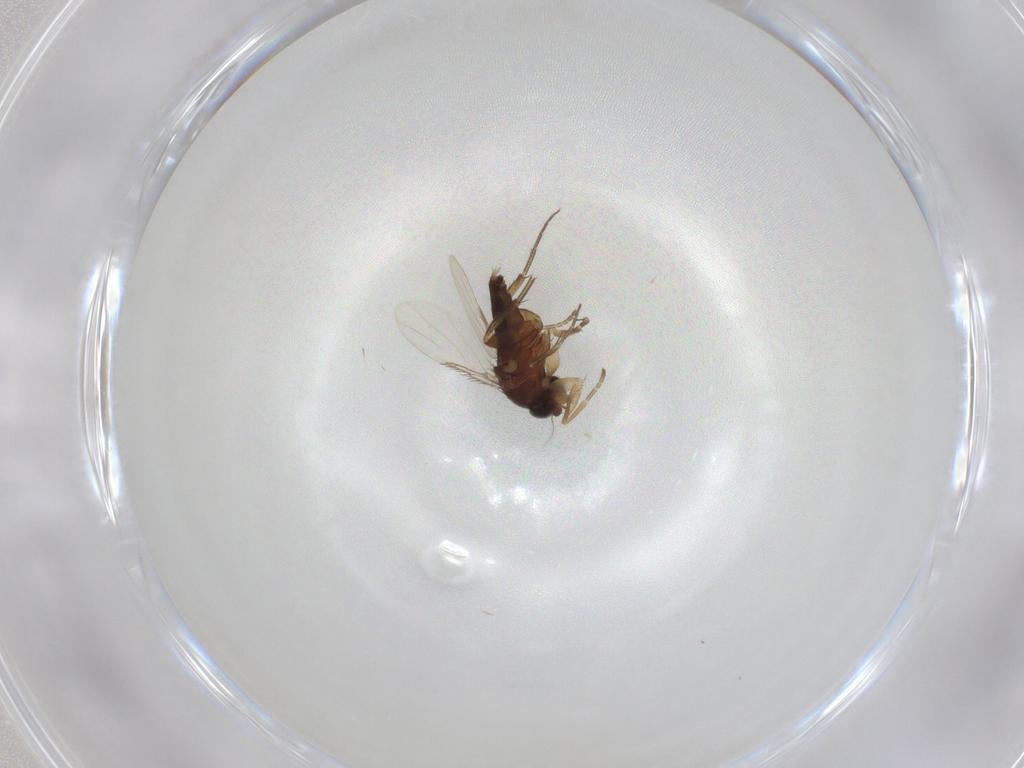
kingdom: Animalia
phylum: Arthropoda
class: Insecta
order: Diptera
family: Phoridae
